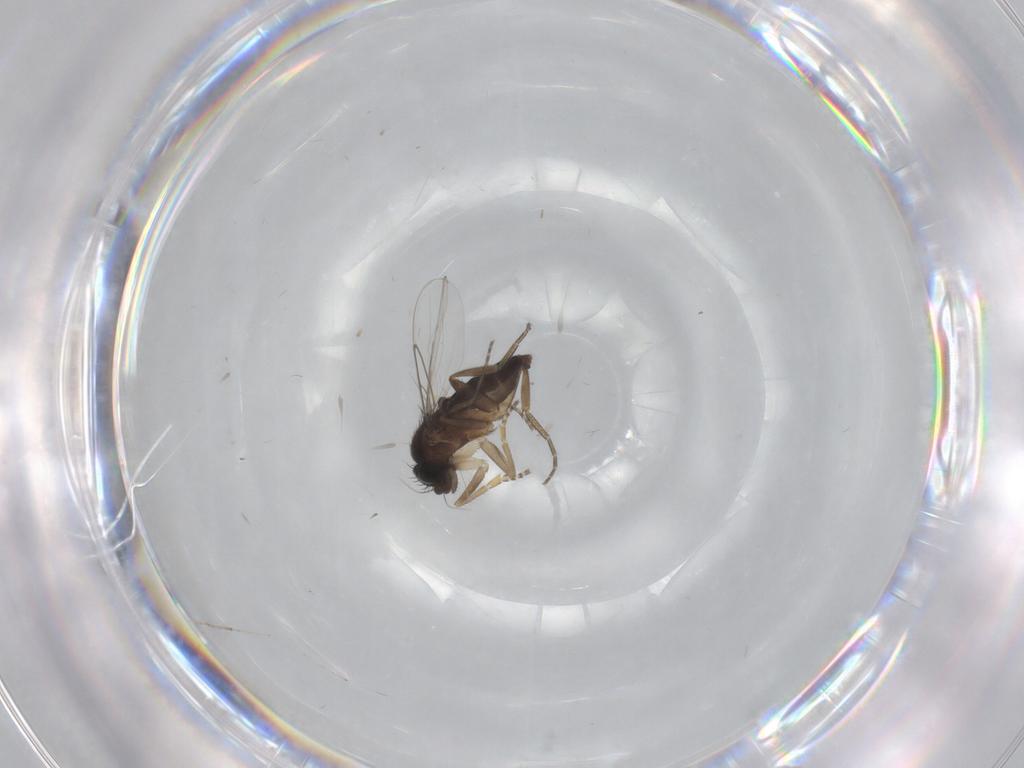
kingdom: Animalia
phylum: Arthropoda
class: Insecta
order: Diptera
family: Phoridae
